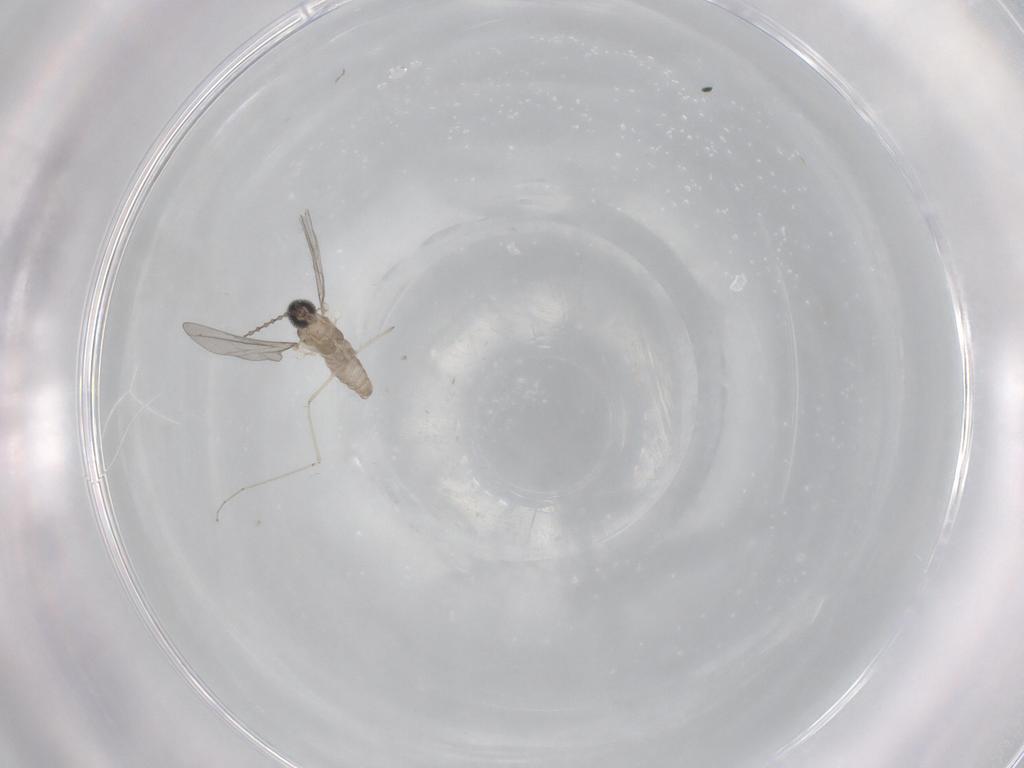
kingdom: Animalia
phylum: Arthropoda
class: Insecta
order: Diptera
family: Cecidomyiidae
